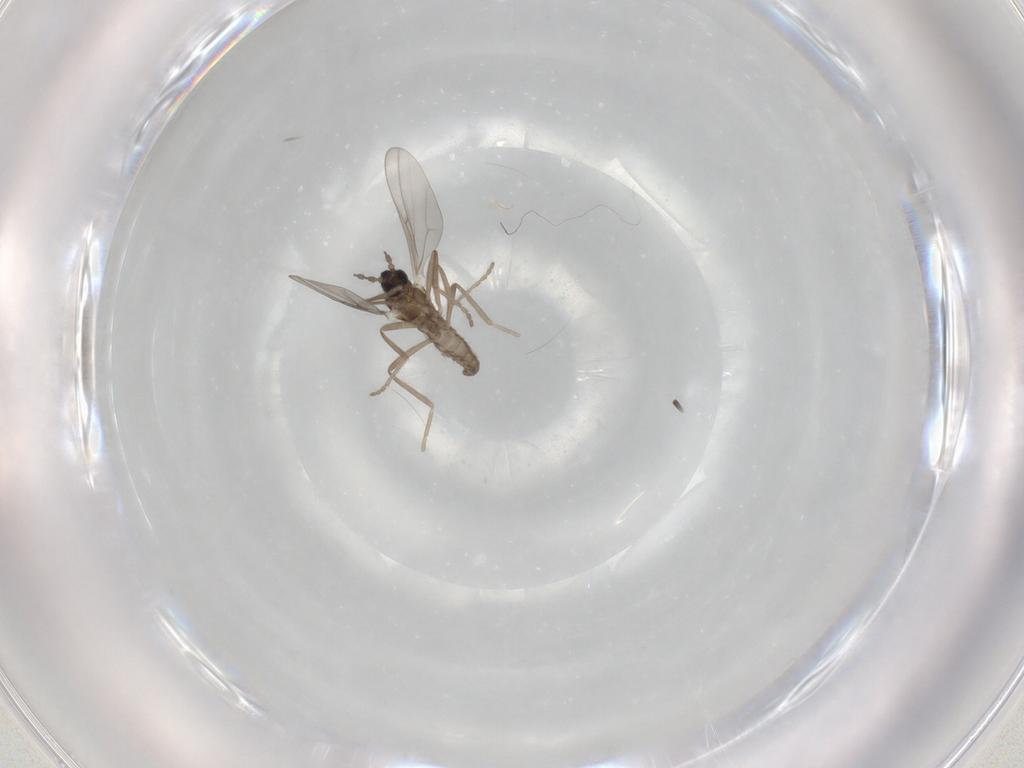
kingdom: Animalia
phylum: Arthropoda
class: Insecta
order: Diptera
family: Cecidomyiidae
